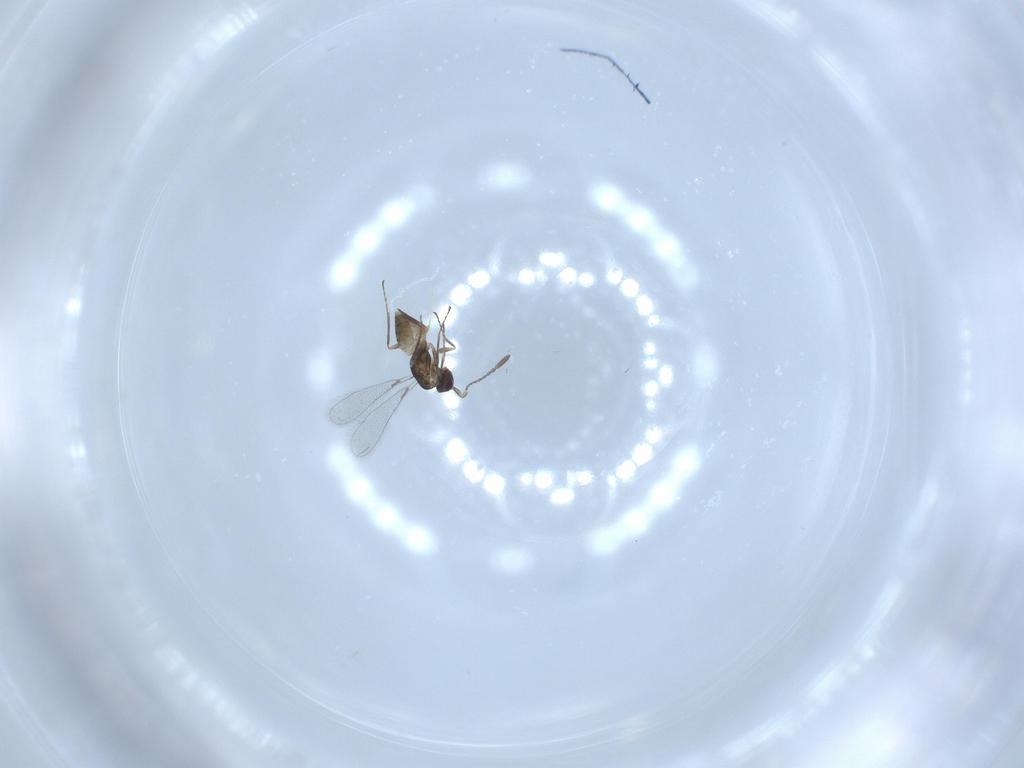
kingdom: Animalia
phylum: Arthropoda
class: Insecta
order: Hymenoptera
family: Mymaridae
